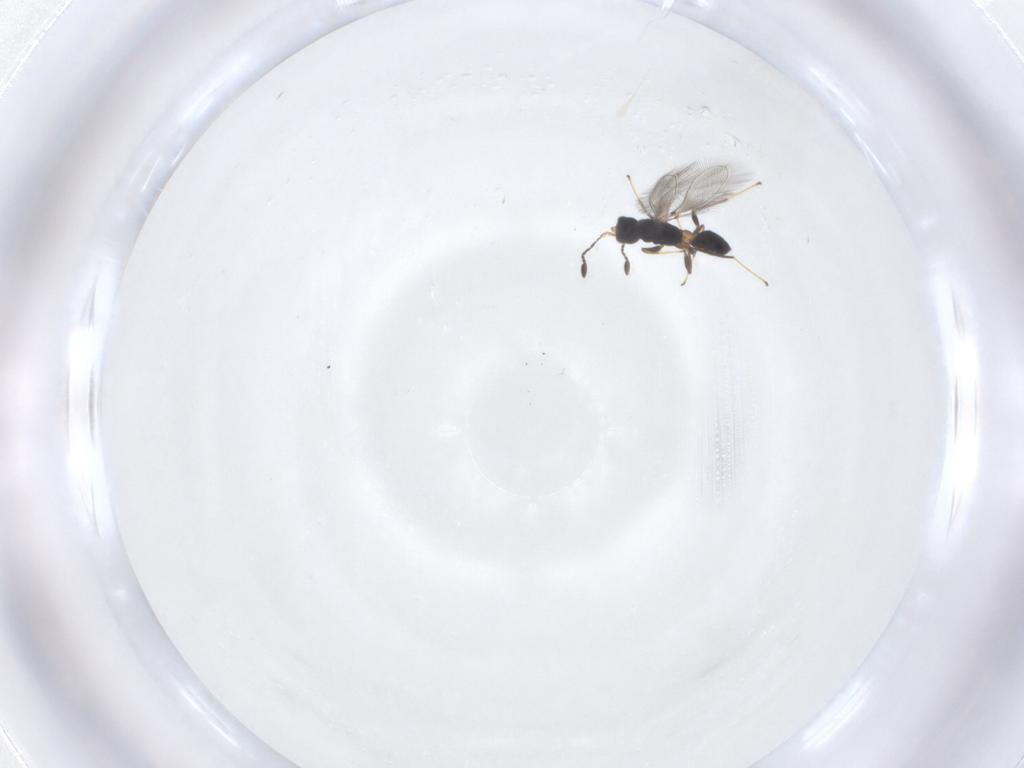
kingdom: Animalia
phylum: Arthropoda
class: Insecta
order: Hymenoptera
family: Mymaridae
